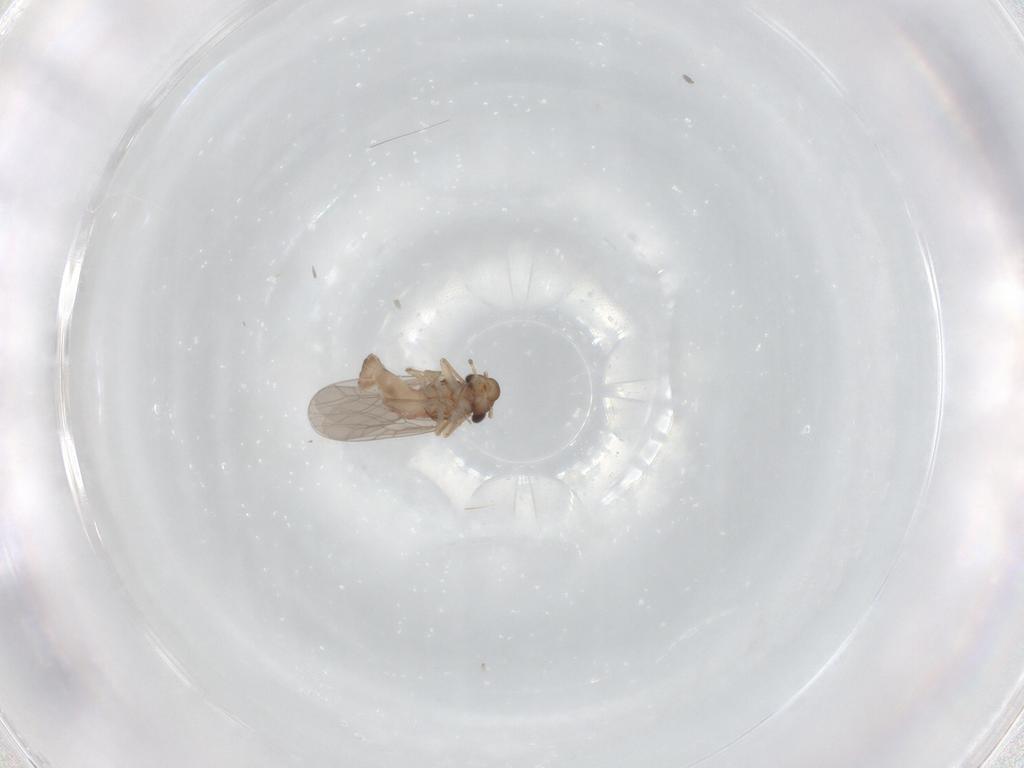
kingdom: Animalia
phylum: Arthropoda
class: Insecta
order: Psocodea
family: Lepidopsocidae
